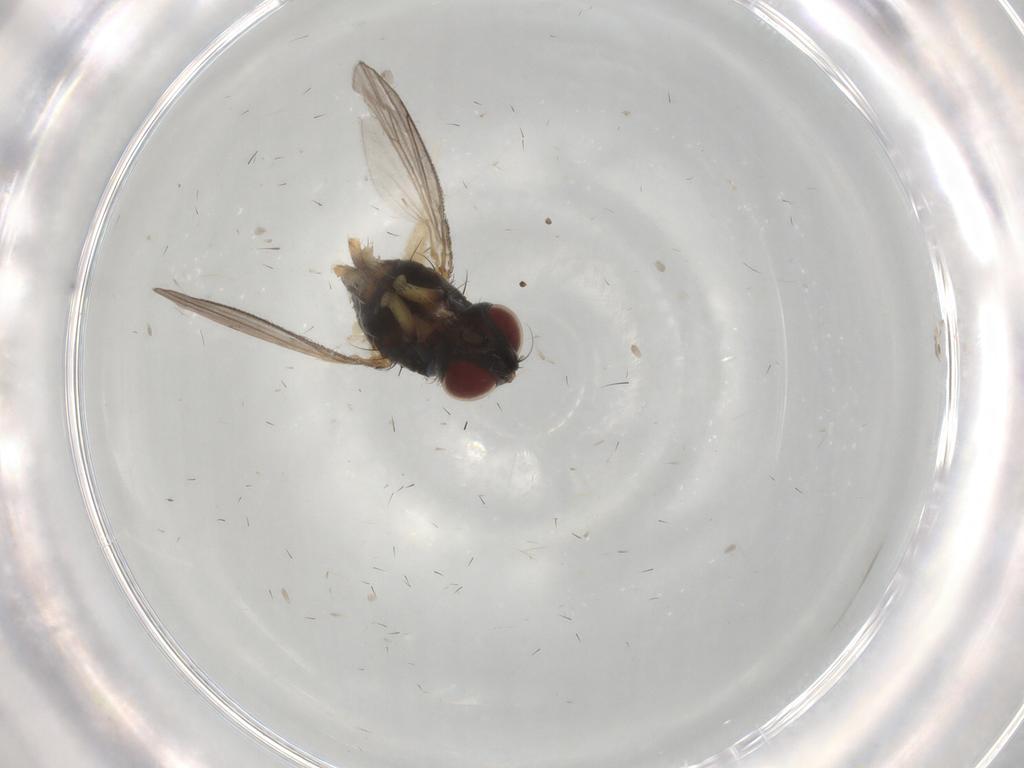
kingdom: Animalia
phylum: Arthropoda
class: Insecta
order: Diptera
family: Muscidae
